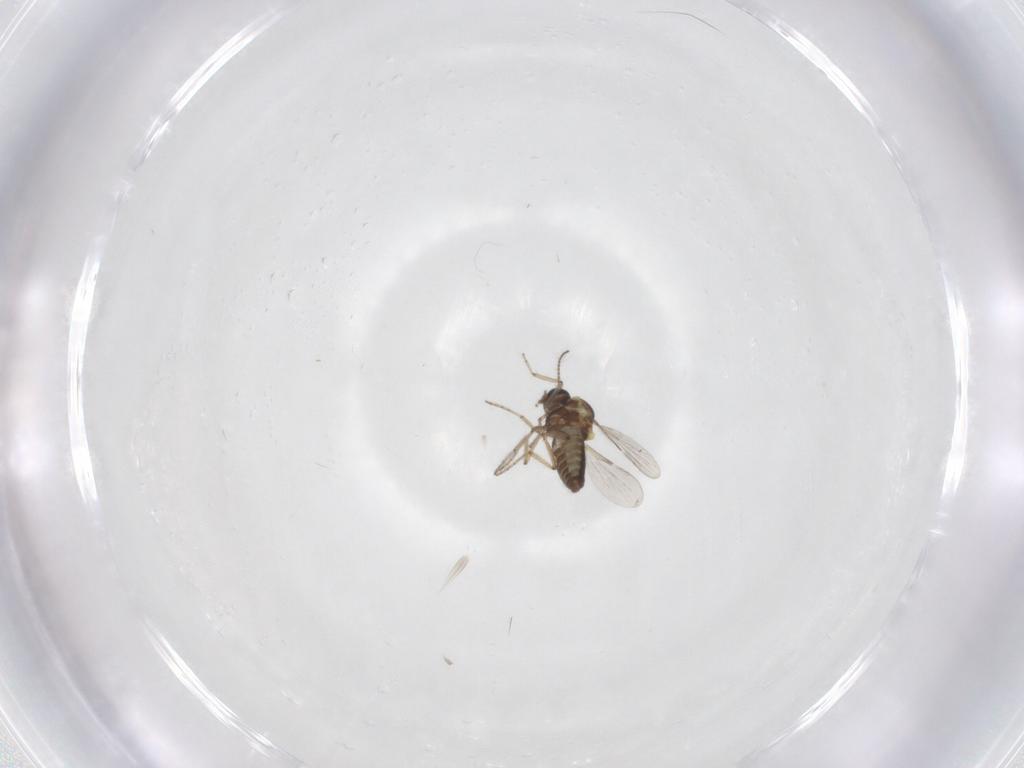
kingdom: Animalia
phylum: Arthropoda
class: Insecta
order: Diptera
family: Ceratopogonidae
